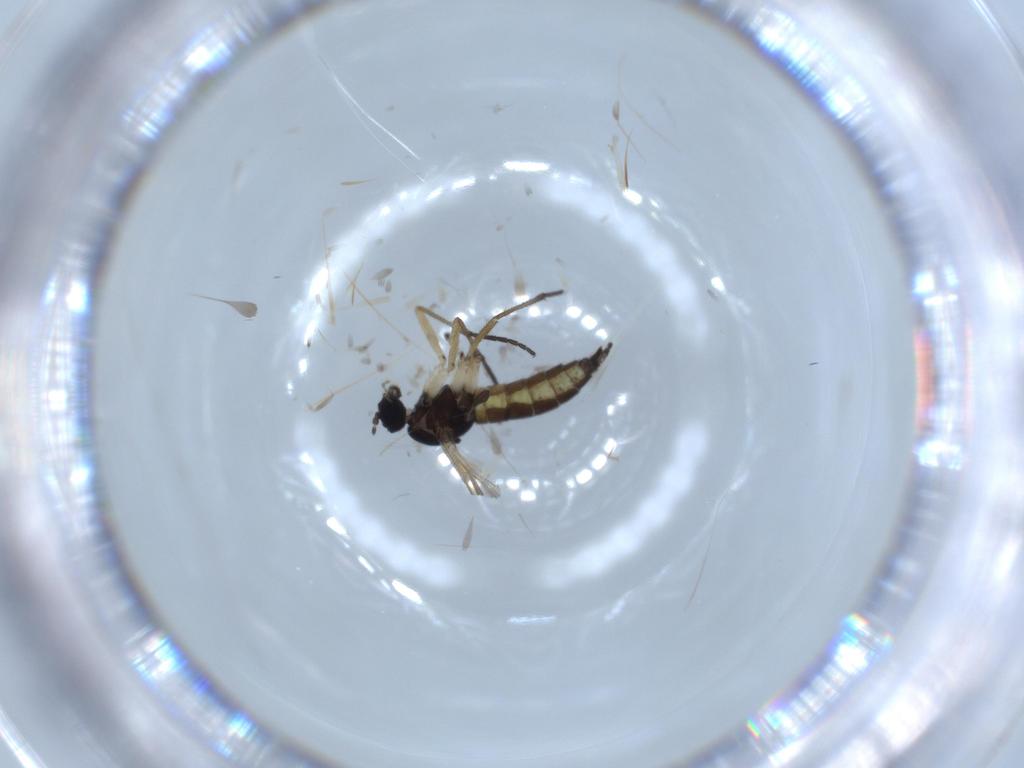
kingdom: Animalia
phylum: Arthropoda
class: Insecta
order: Diptera
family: Sciaridae
